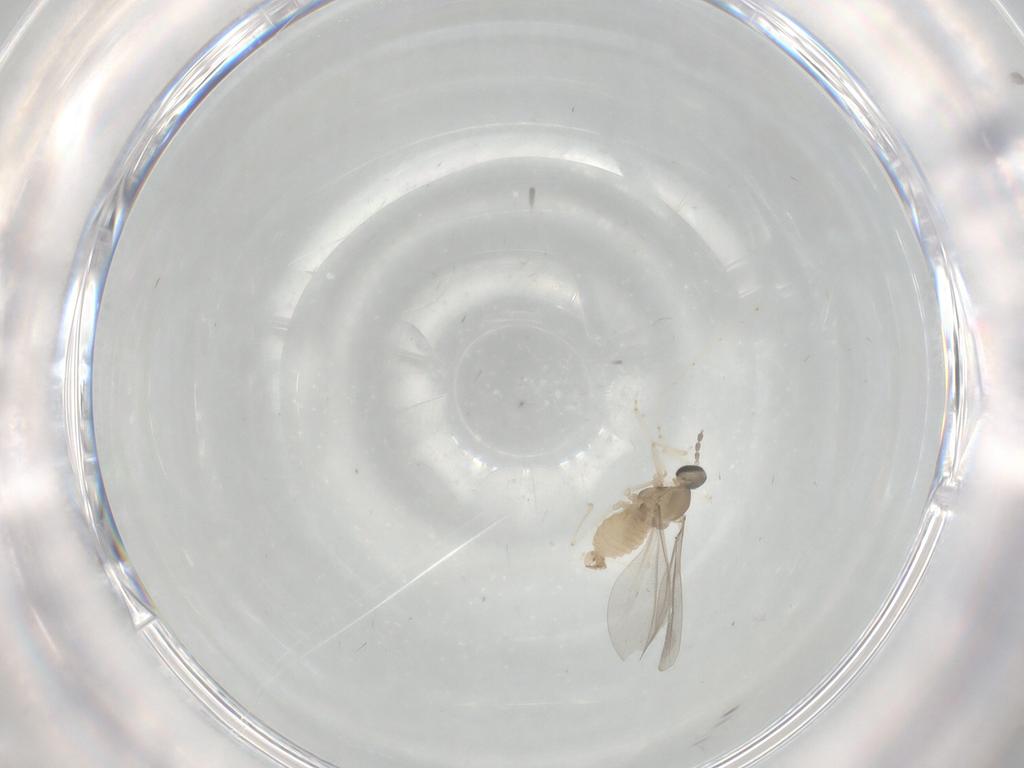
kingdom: Animalia
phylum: Arthropoda
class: Insecta
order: Diptera
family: Cecidomyiidae
